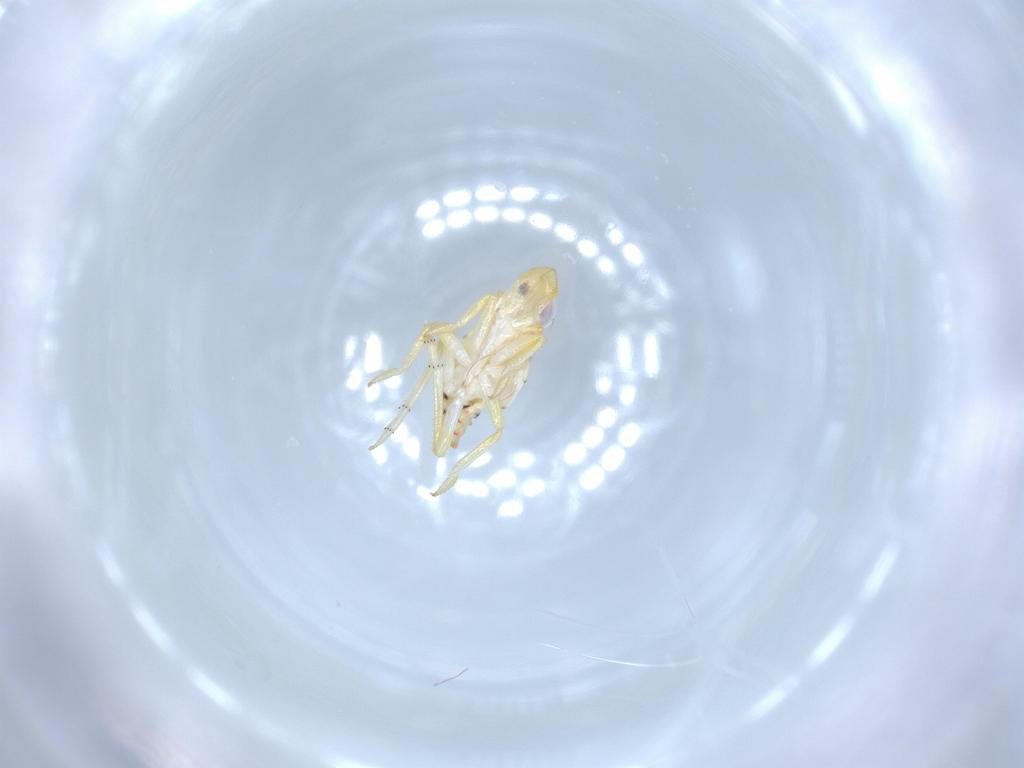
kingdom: Animalia
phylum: Arthropoda
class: Insecta
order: Hemiptera
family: Tropiduchidae
